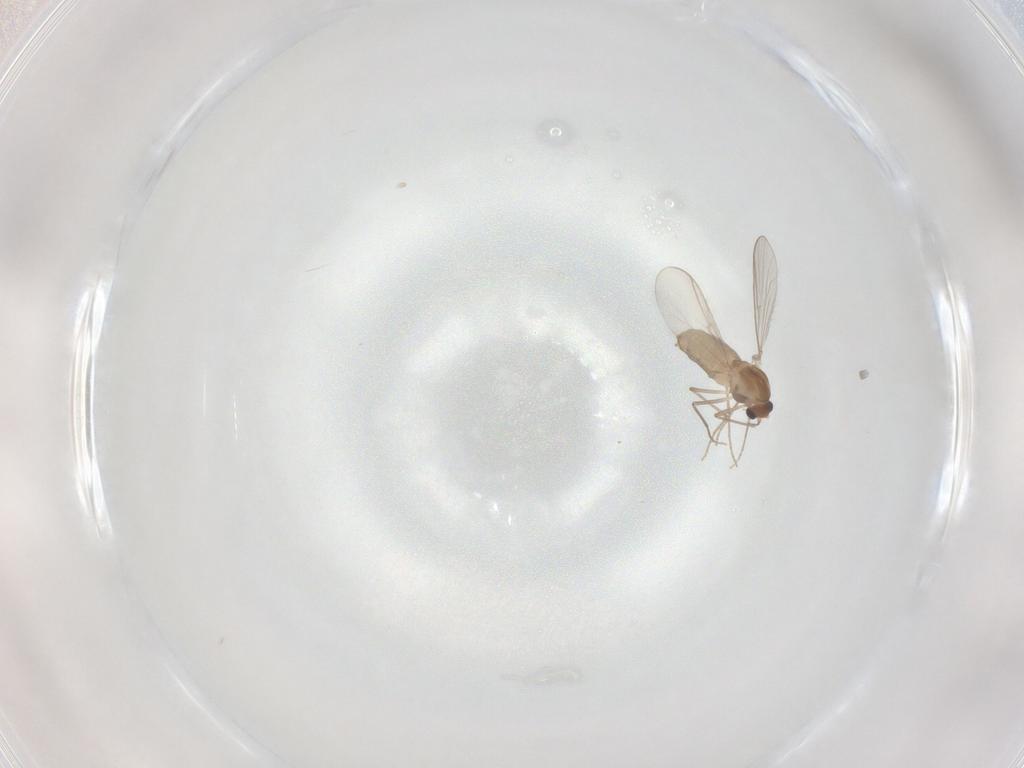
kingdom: Animalia
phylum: Arthropoda
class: Insecta
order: Diptera
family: Chironomidae
